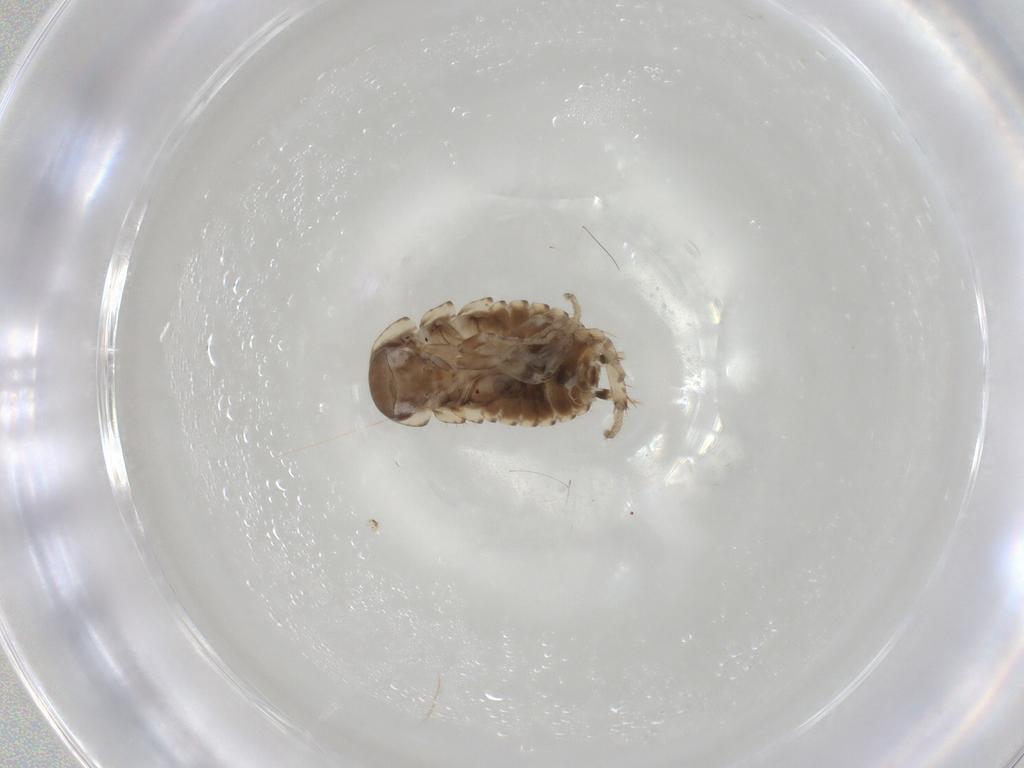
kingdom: Animalia
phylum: Arthropoda
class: Insecta
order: Blattodea
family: Blaberidae
